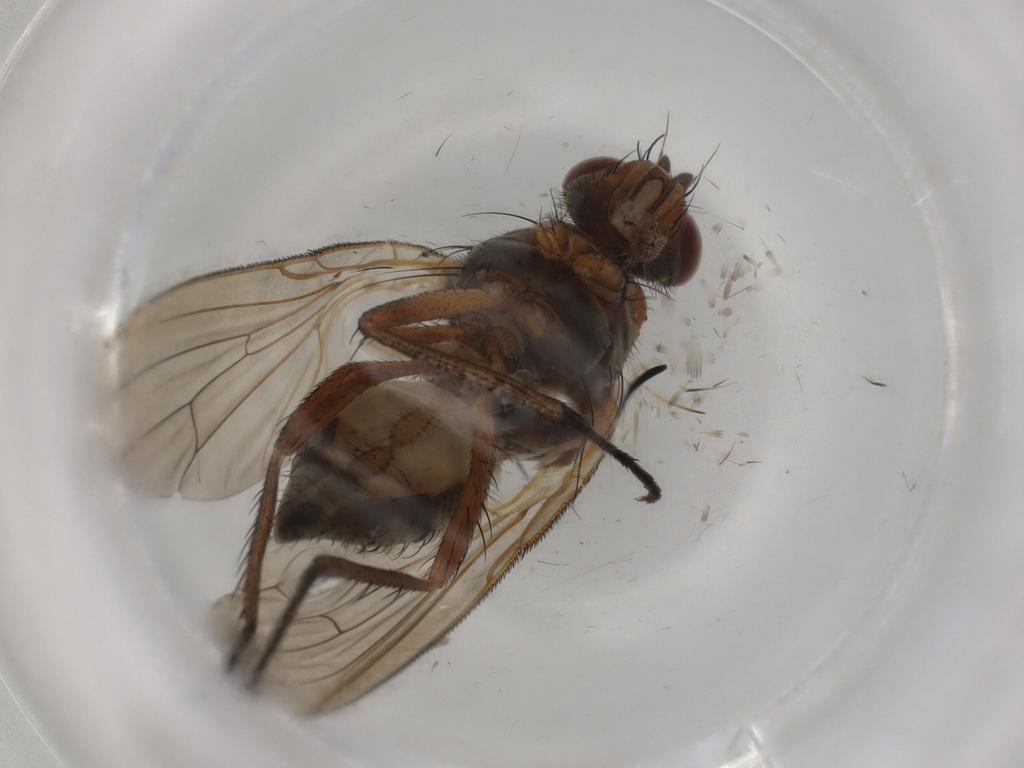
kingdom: Animalia
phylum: Arthropoda
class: Insecta
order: Diptera
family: Anthomyiidae
